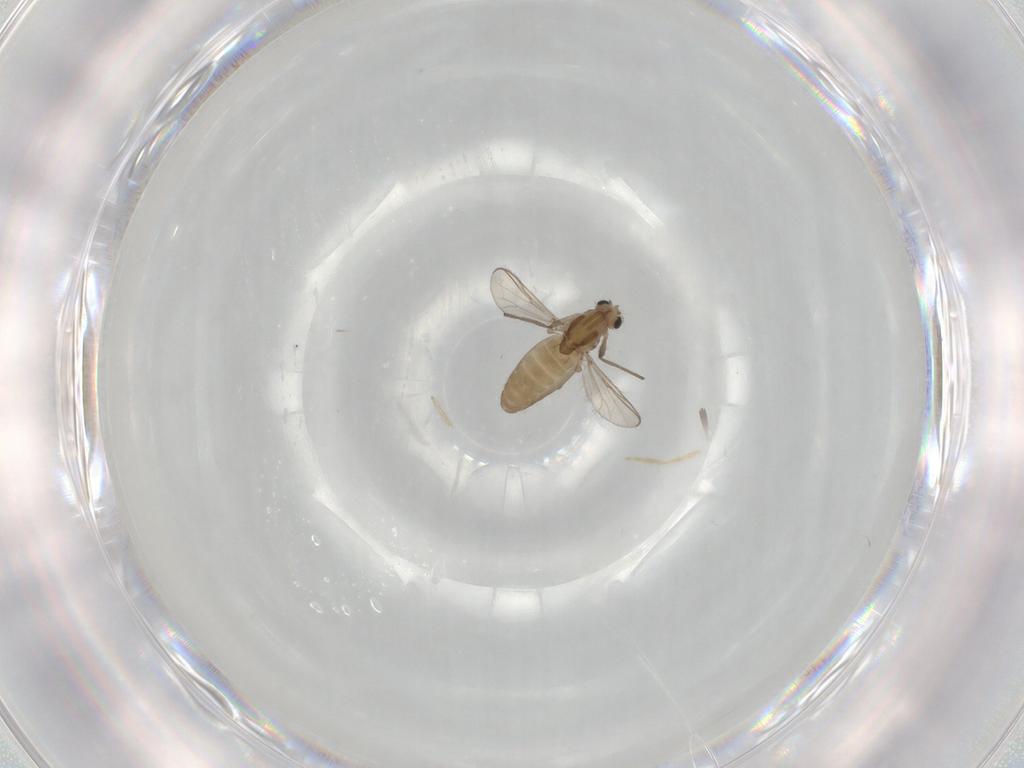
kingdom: Animalia
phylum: Arthropoda
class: Insecta
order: Diptera
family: Chironomidae
